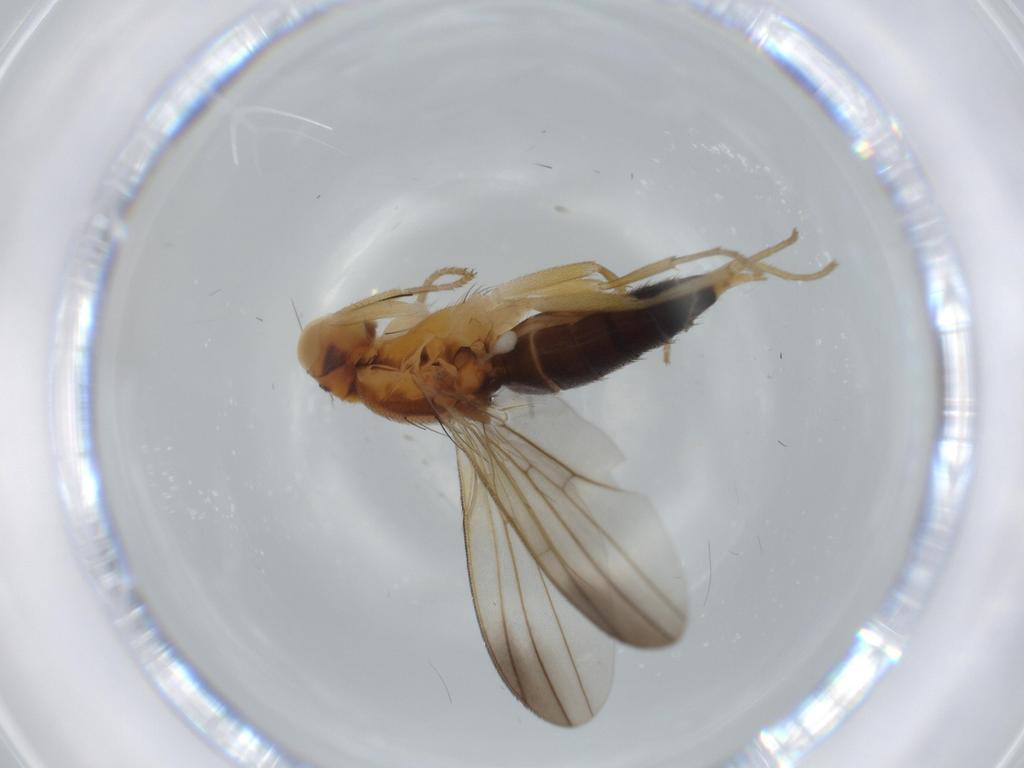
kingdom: Animalia
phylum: Arthropoda
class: Insecta
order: Diptera
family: Clusiidae
